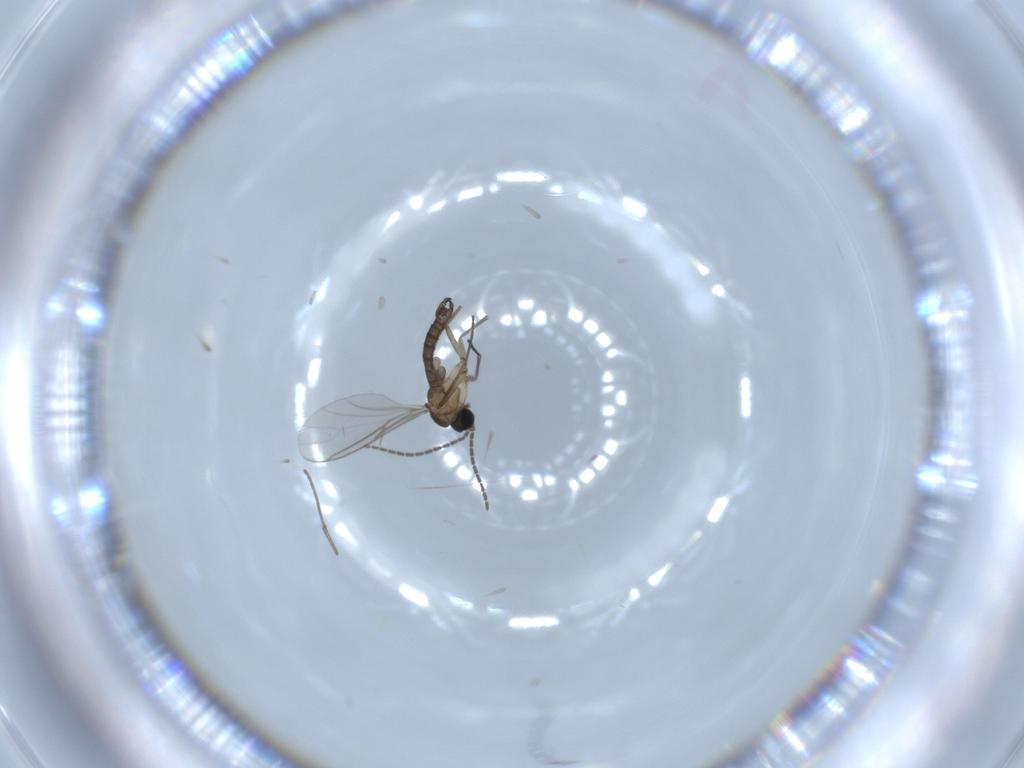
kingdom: Animalia
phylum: Arthropoda
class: Insecta
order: Diptera
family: Sciaridae
